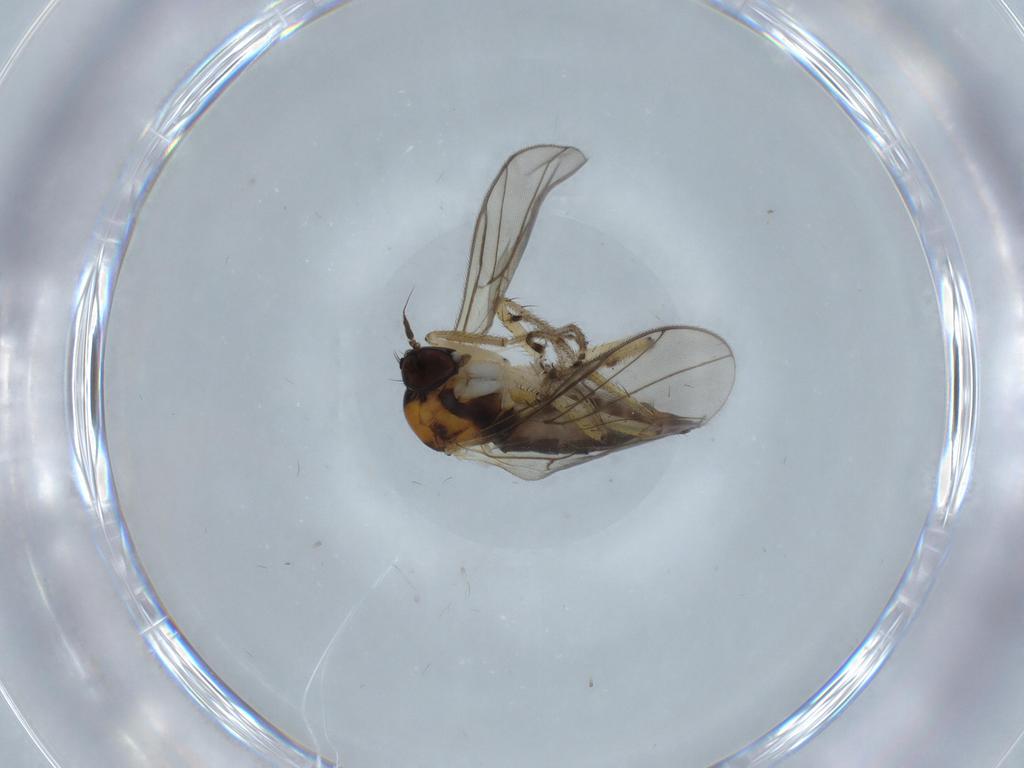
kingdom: Animalia
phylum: Arthropoda
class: Insecta
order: Diptera
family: Hybotidae
